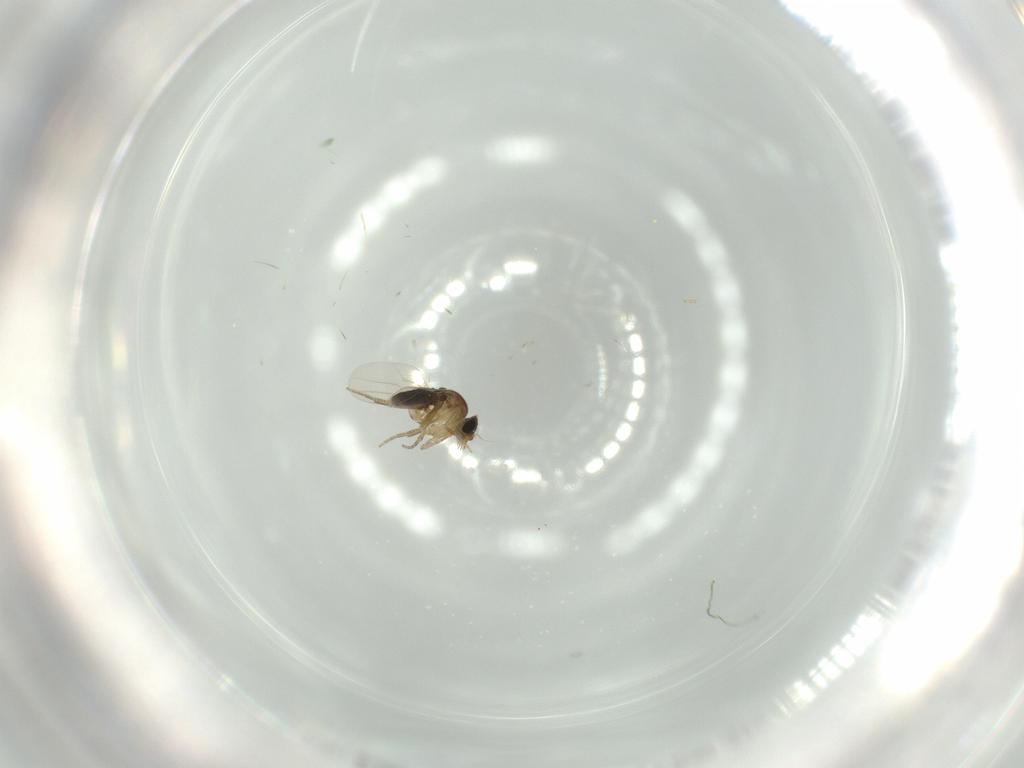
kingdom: Animalia
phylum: Arthropoda
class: Insecta
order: Diptera
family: Phoridae
